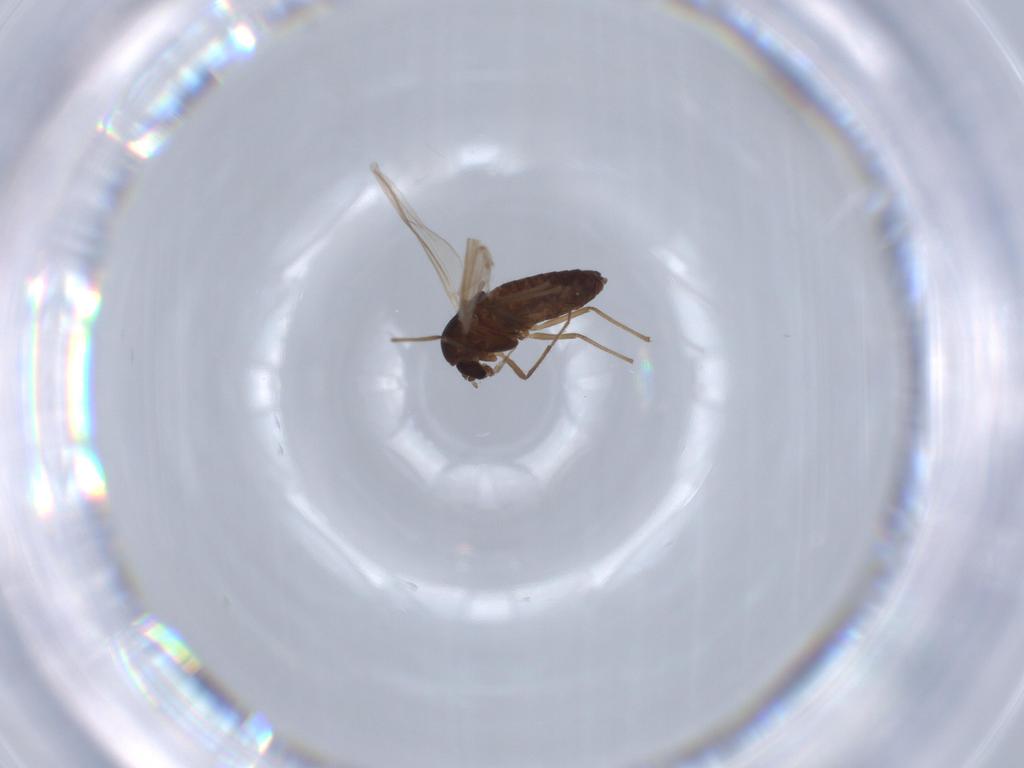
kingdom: Animalia
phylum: Arthropoda
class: Insecta
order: Diptera
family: Chironomidae
